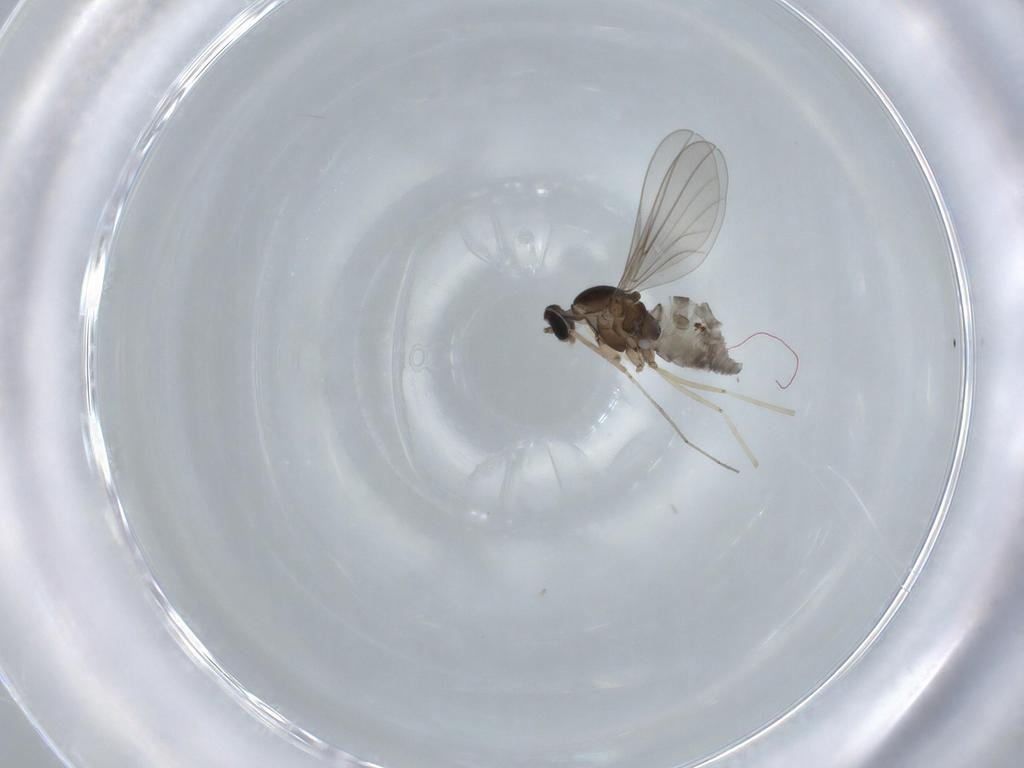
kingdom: Animalia
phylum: Arthropoda
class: Insecta
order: Diptera
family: Cecidomyiidae
